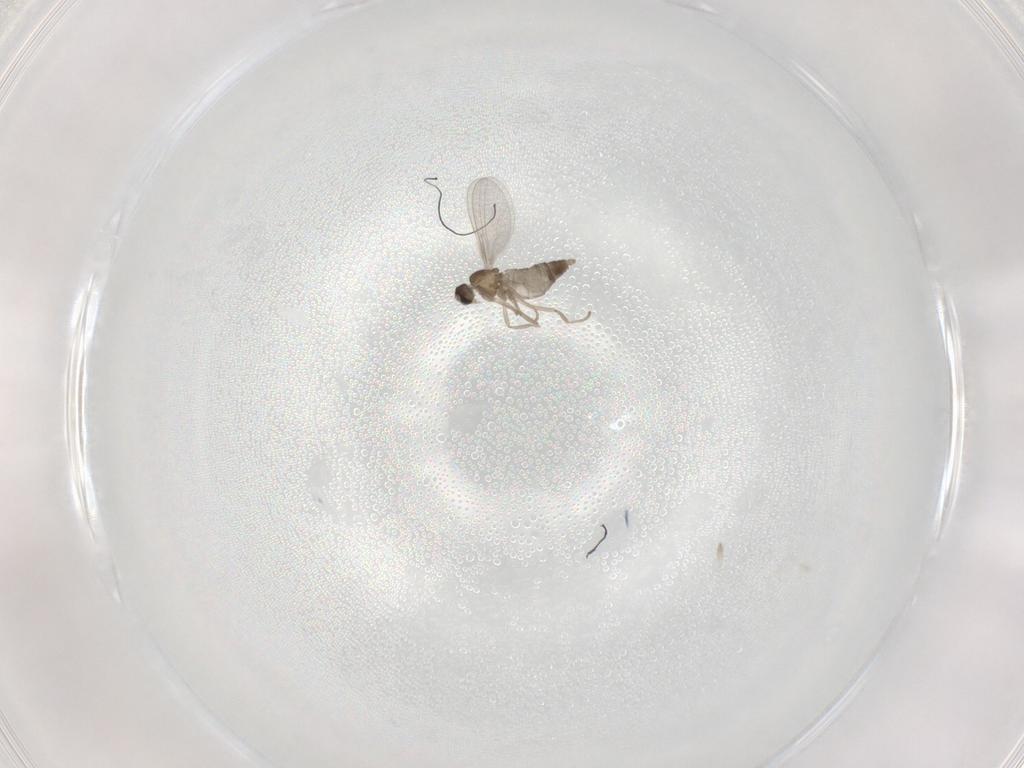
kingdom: Animalia
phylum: Arthropoda
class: Insecta
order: Diptera
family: Cecidomyiidae
